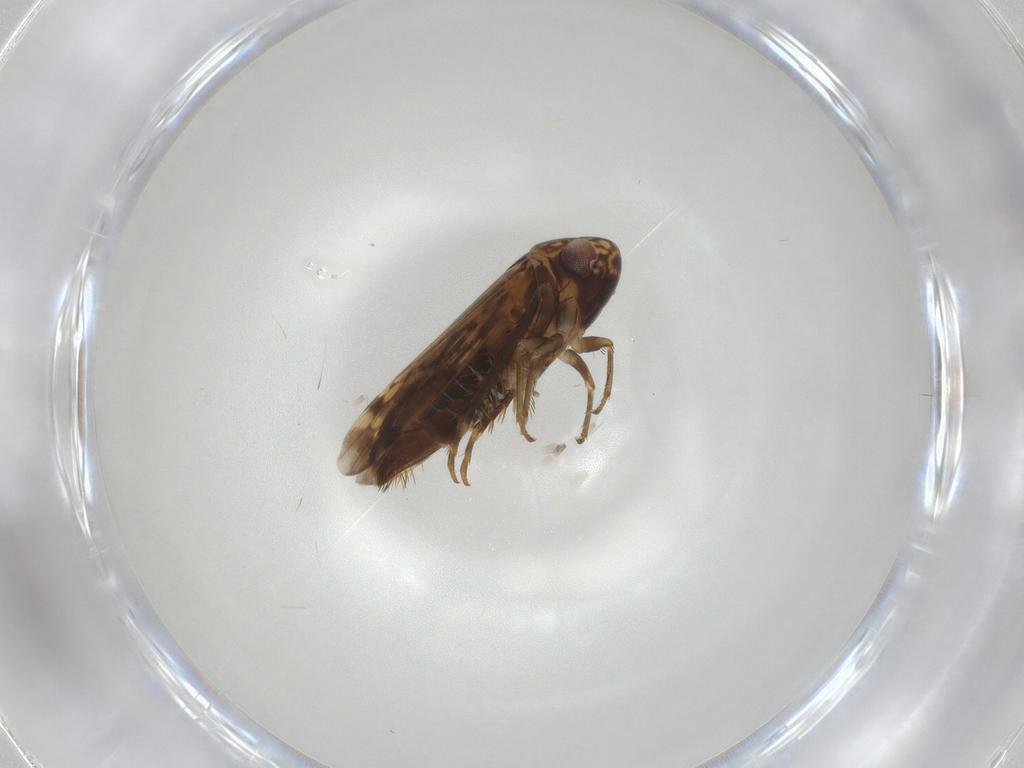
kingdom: Animalia
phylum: Arthropoda
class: Insecta
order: Hemiptera
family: Cicadellidae
